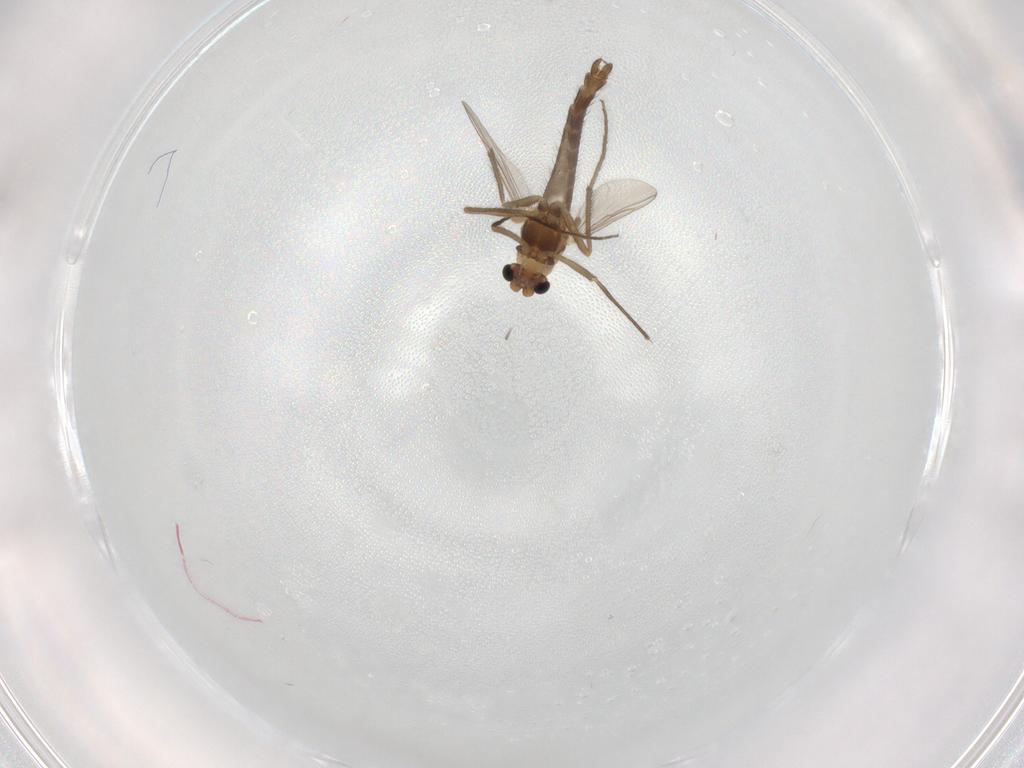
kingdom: Animalia
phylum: Arthropoda
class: Insecta
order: Diptera
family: Chironomidae
